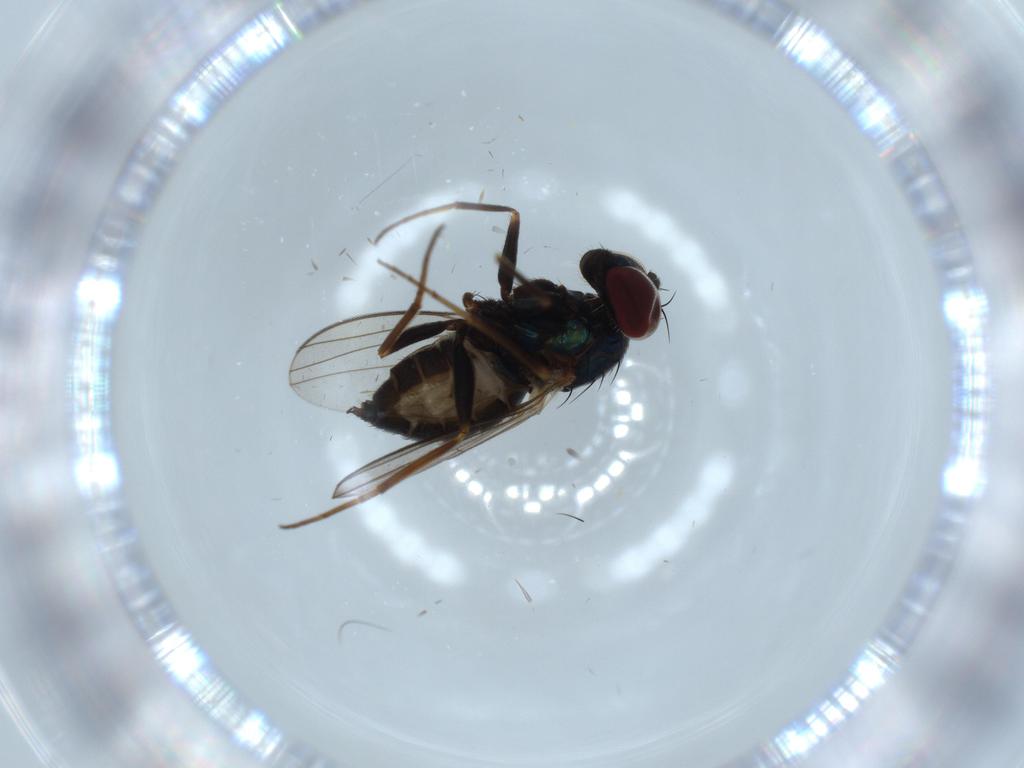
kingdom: Animalia
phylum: Arthropoda
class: Insecta
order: Diptera
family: Dolichopodidae
